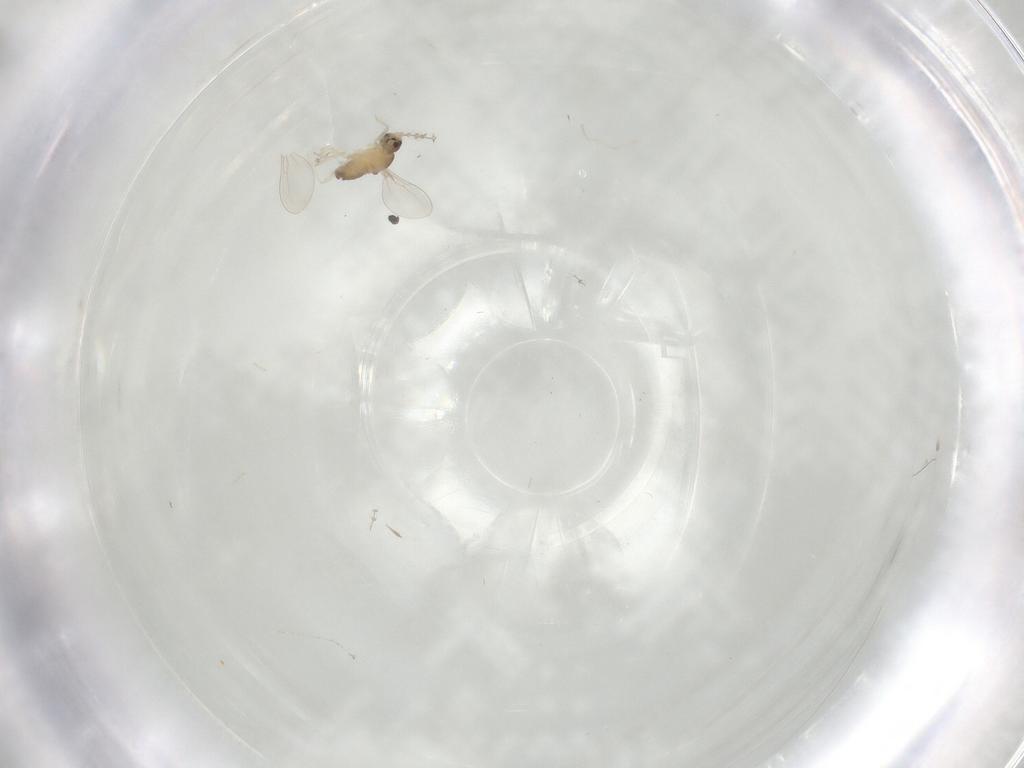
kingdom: Animalia
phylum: Arthropoda
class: Insecta
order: Diptera
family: Cecidomyiidae
